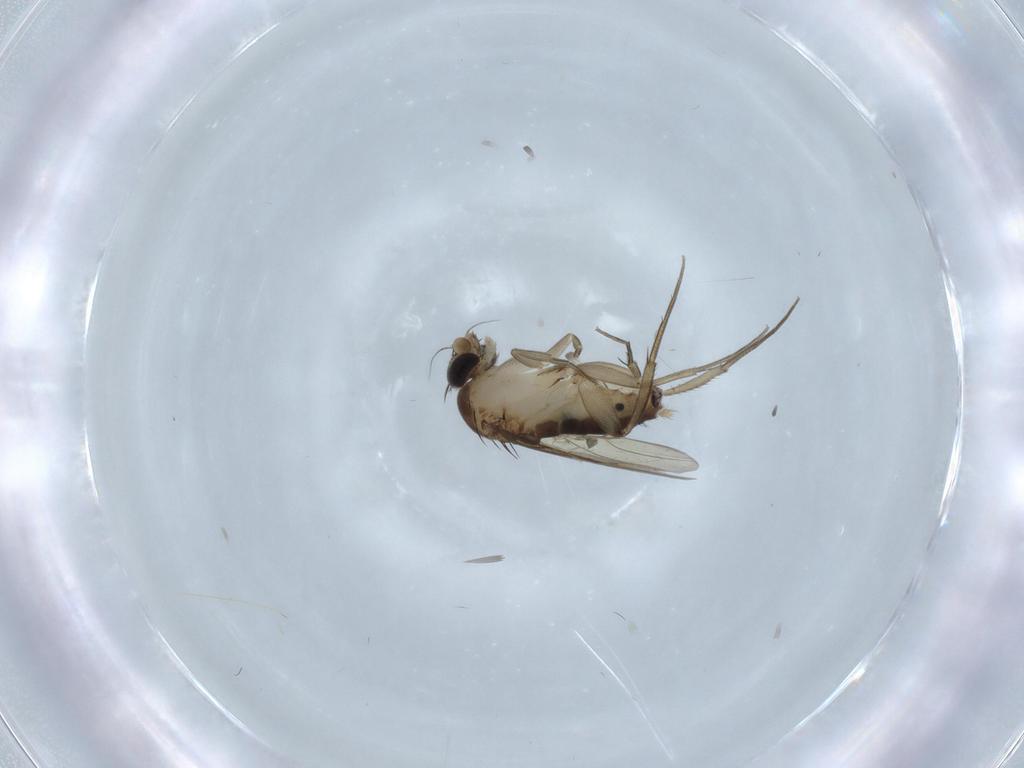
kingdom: Animalia
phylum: Arthropoda
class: Insecta
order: Diptera
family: Phoridae
